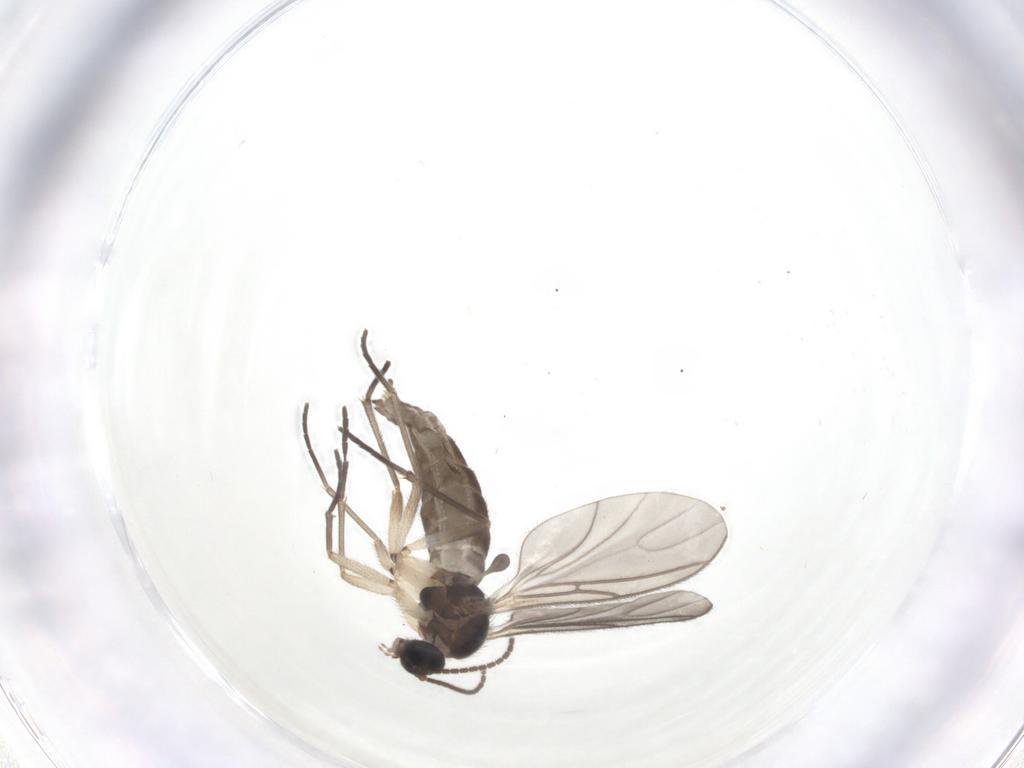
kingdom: Animalia
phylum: Arthropoda
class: Insecta
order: Diptera
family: Sciaridae
